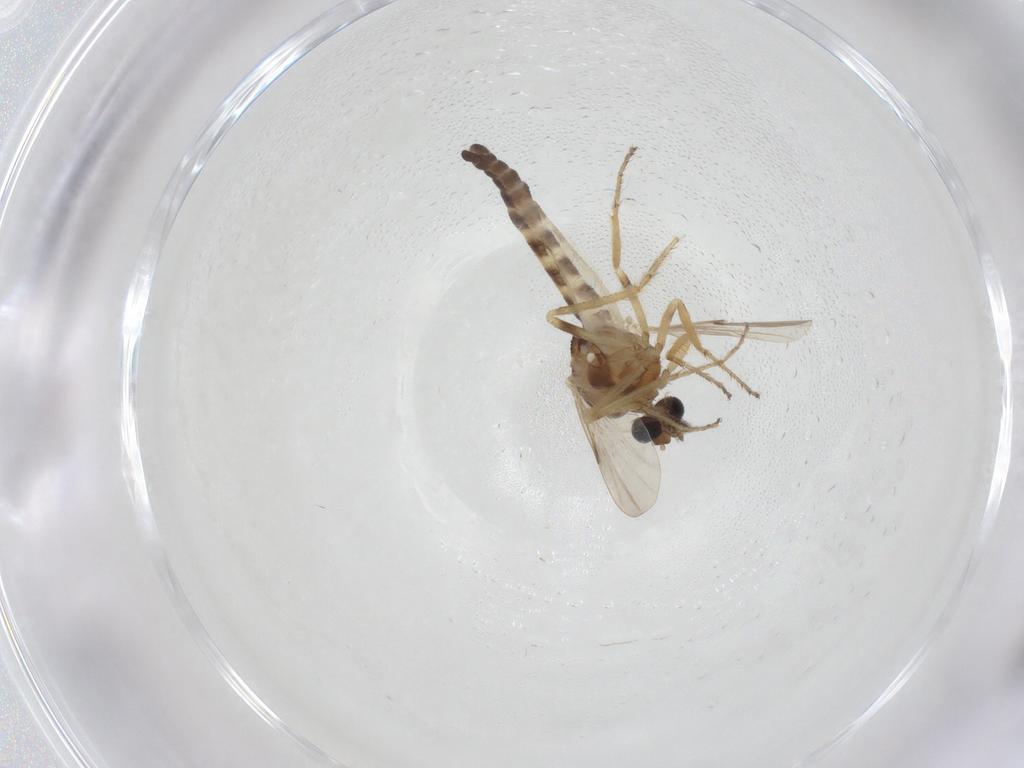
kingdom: Animalia
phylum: Arthropoda
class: Insecta
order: Diptera
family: Ceratopogonidae
